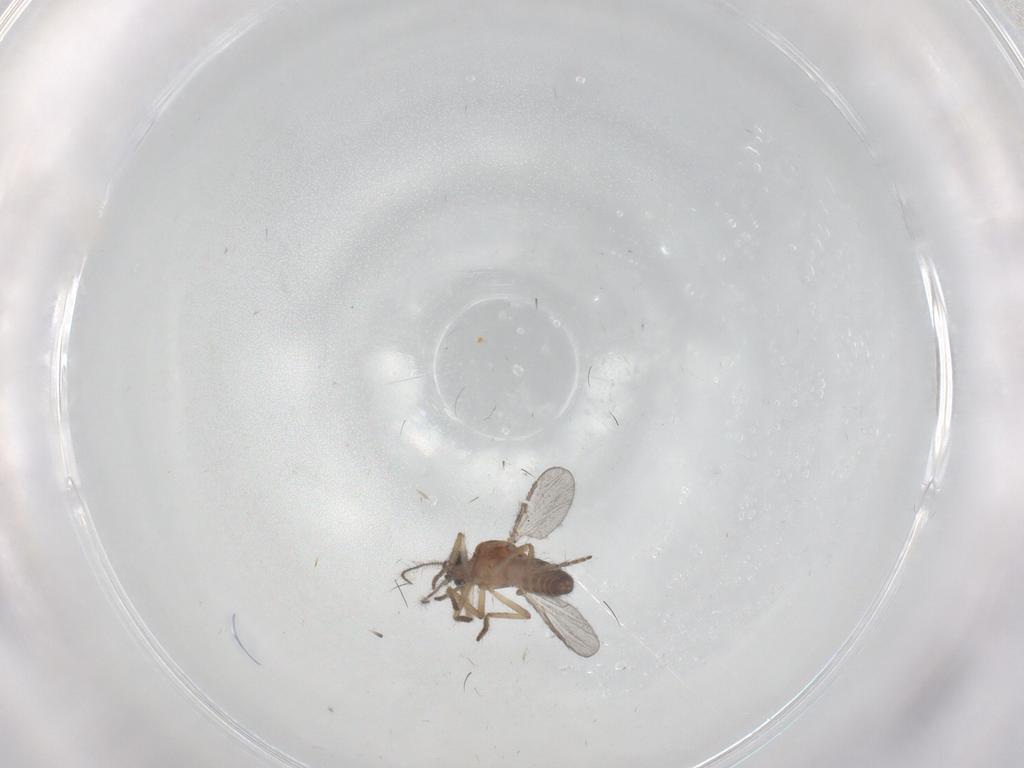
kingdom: Animalia
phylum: Arthropoda
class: Insecta
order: Diptera
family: Ceratopogonidae
